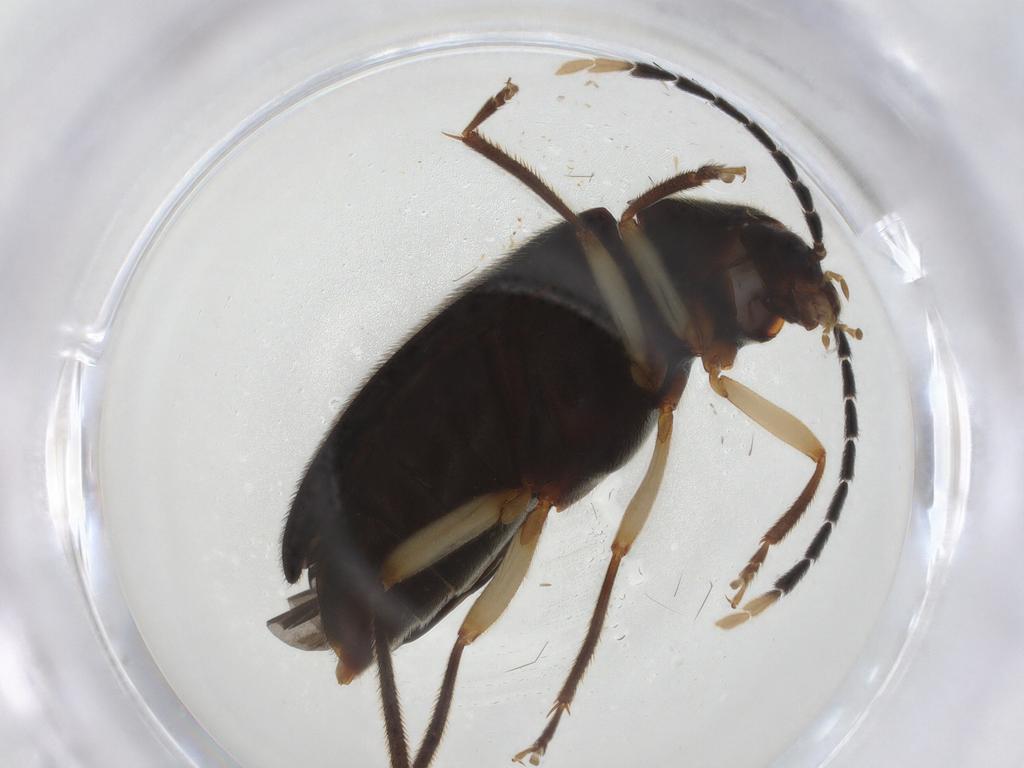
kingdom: Animalia
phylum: Arthropoda
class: Insecta
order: Coleoptera
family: Ptilodactylidae
